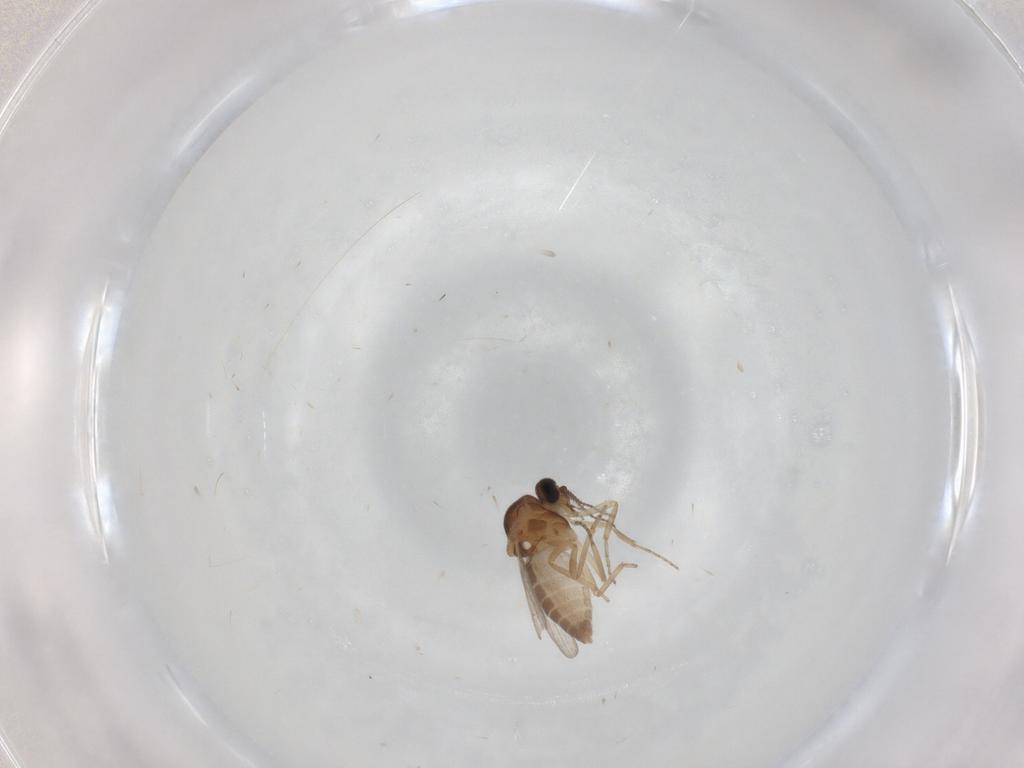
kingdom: Animalia
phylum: Arthropoda
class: Insecta
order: Diptera
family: Ceratopogonidae
